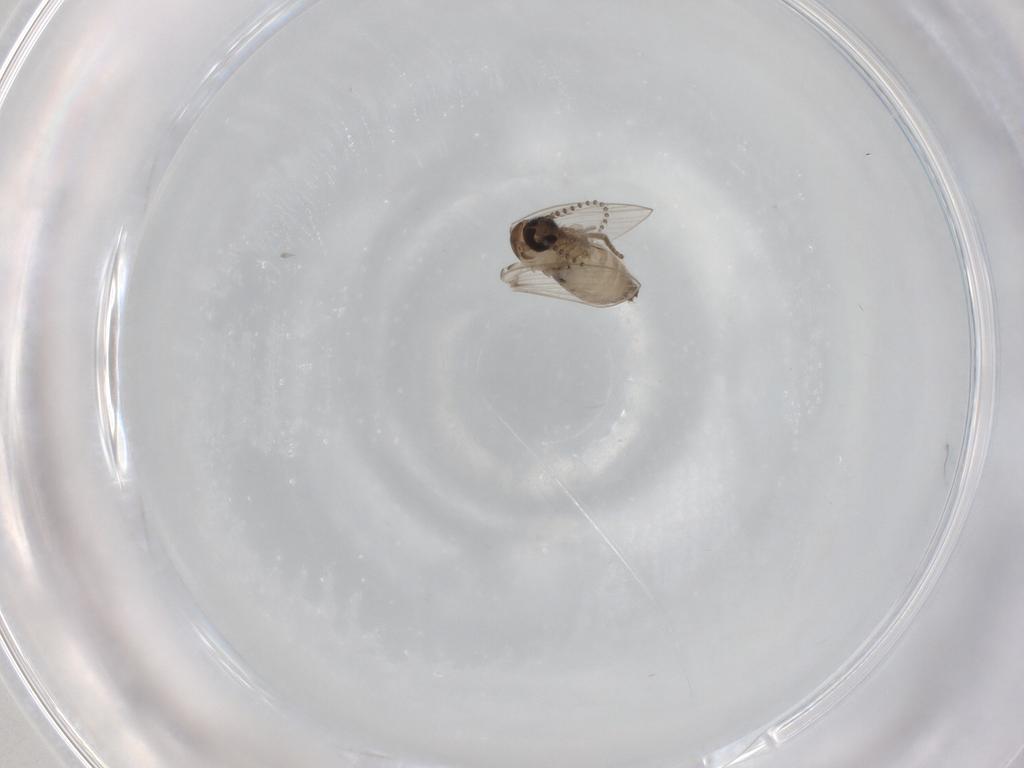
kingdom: Animalia
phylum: Arthropoda
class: Insecta
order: Diptera
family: Psychodidae
